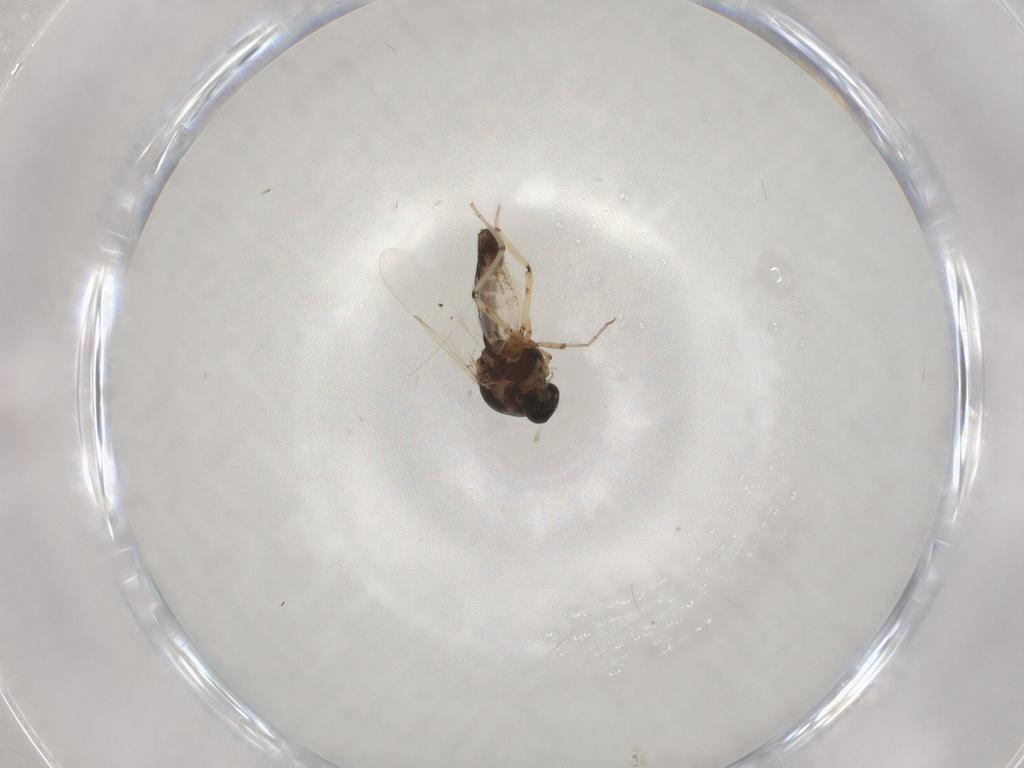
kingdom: Animalia
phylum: Arthropoda
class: Insecta
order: Diptera
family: Ceratopogonidae
